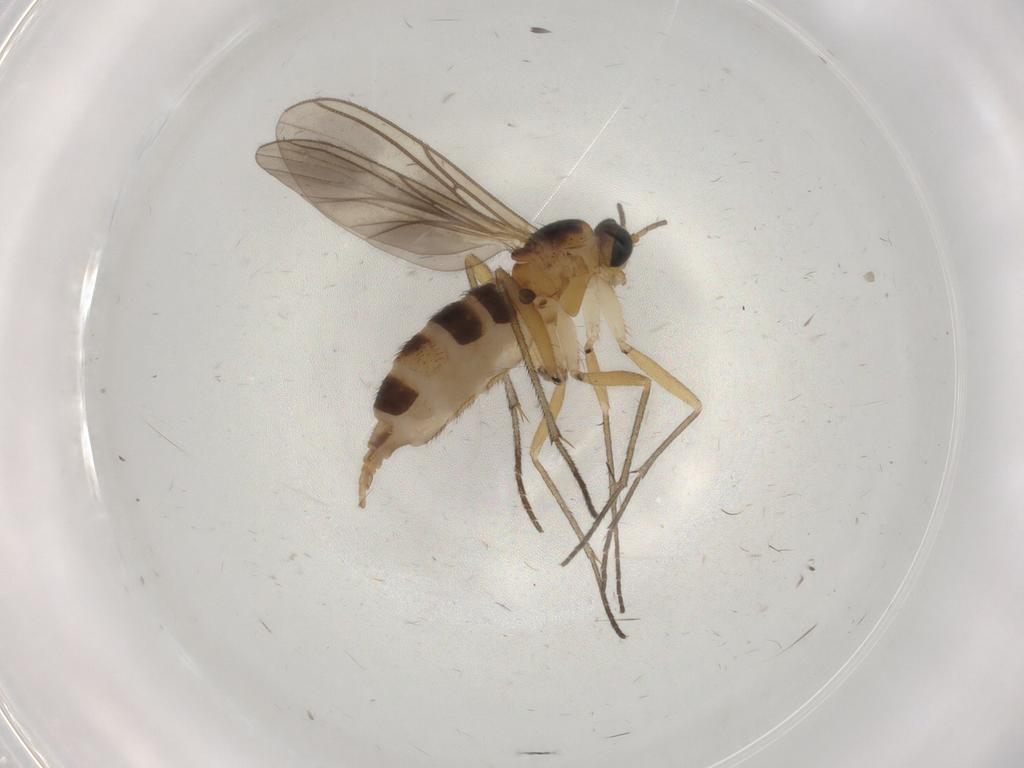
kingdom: Animalia
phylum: Arthropoda
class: Insecta
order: Diptera
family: Sciaridae
